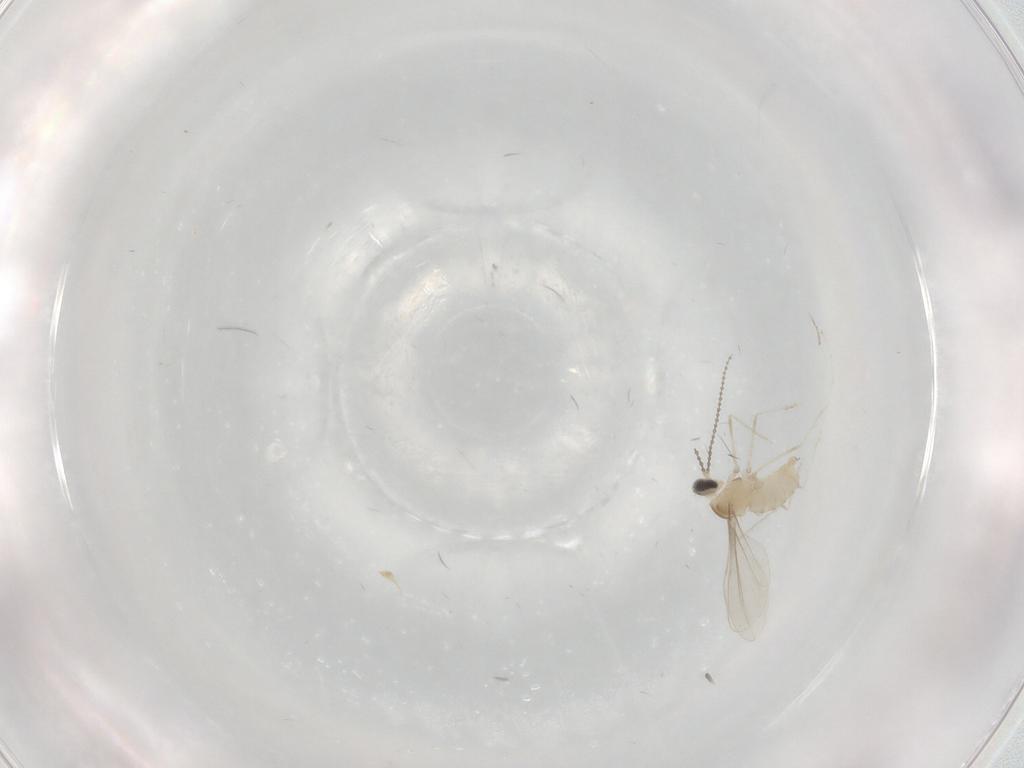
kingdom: Animalia
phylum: Arthropoda
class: Insecta
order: Diptera
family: Cecidomyiidae
